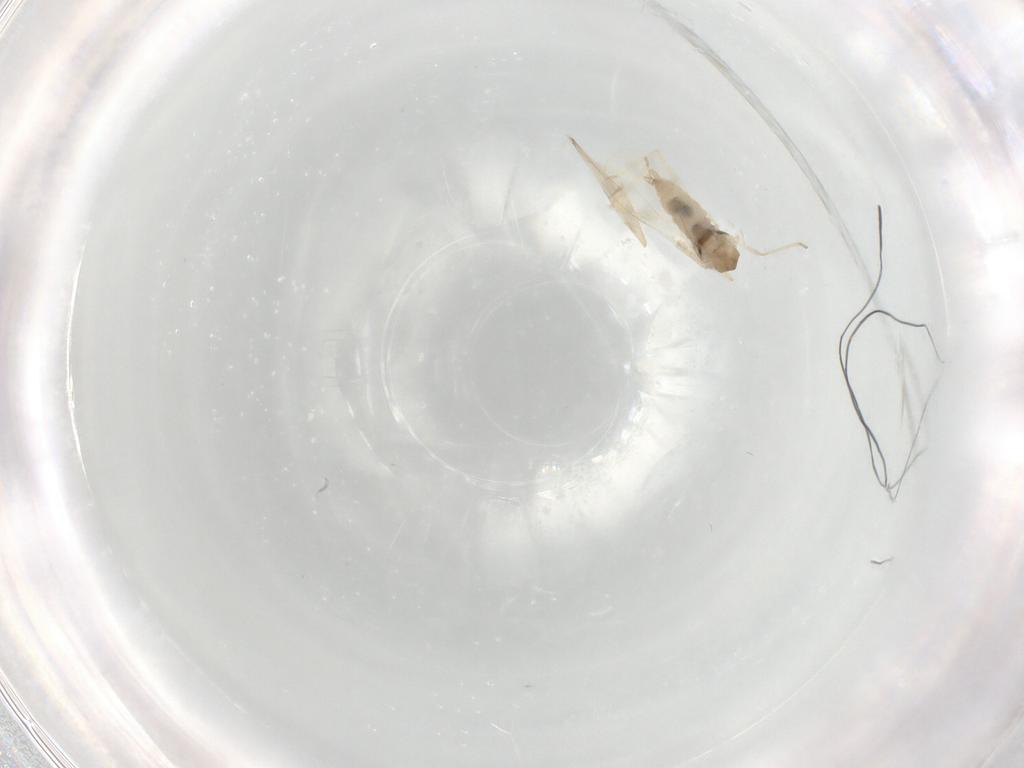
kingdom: Animalia
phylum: Arthropoda
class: Insecta
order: Diptera
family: Cecidomyiidae
